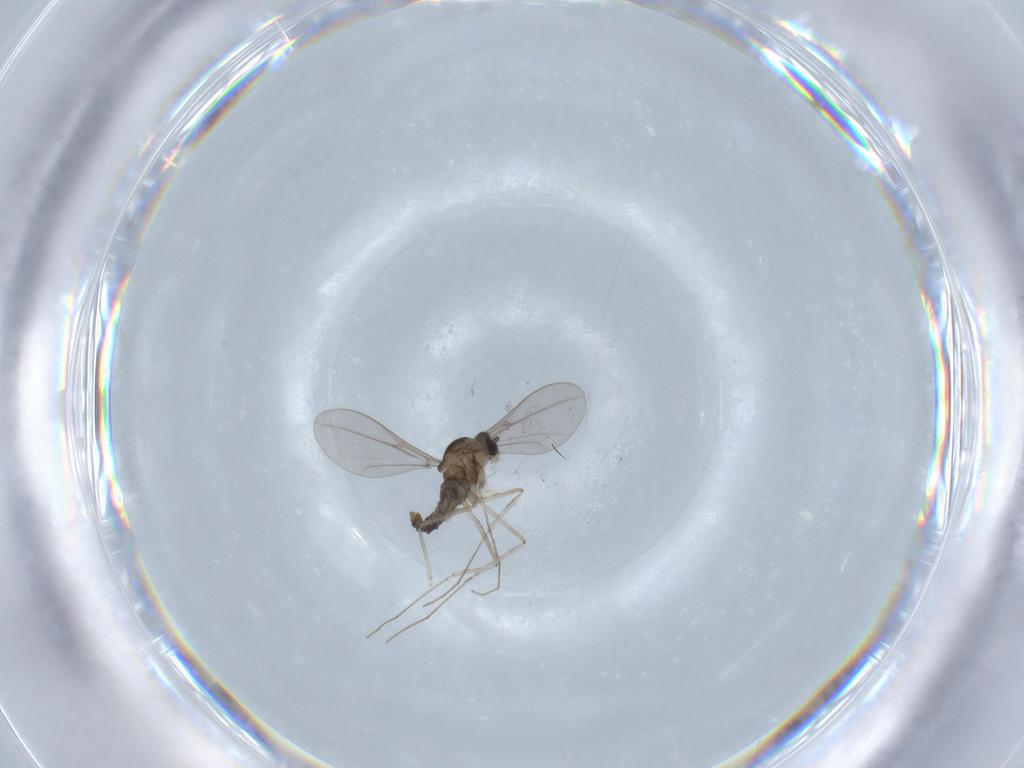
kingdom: Animalia
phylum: Arthropoda
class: Insecta
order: Diptera
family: Cecidomyiidae
